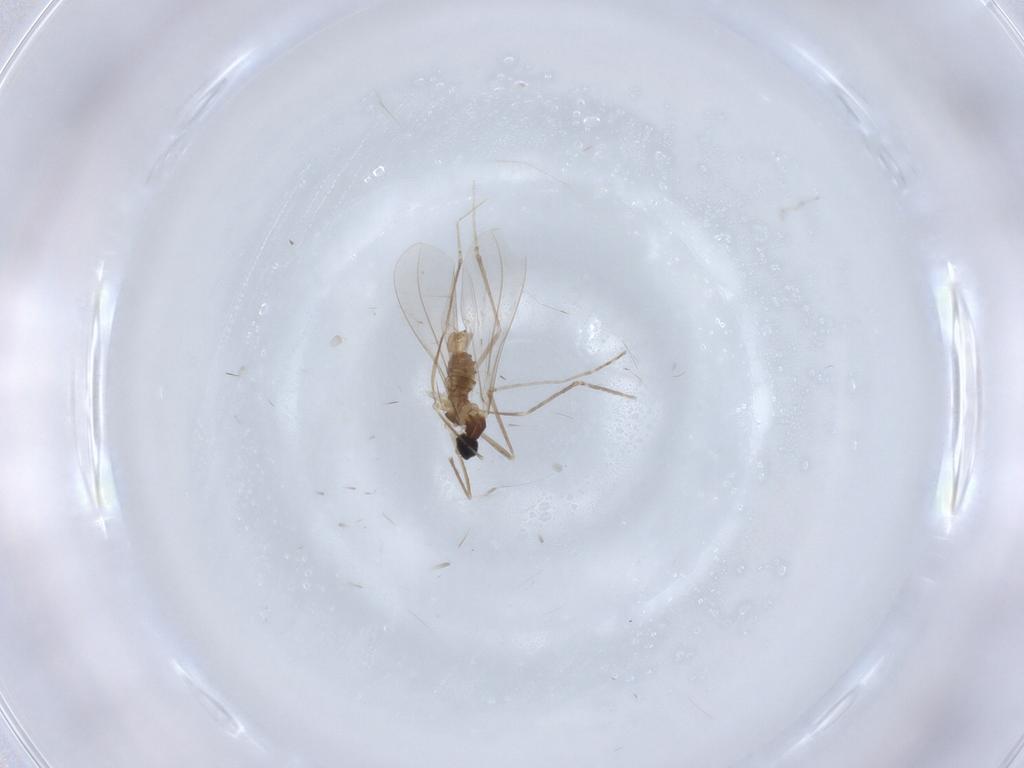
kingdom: Animalia
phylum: Arthropoda
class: Insecta
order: Diptera
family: Cecidomyiidae
